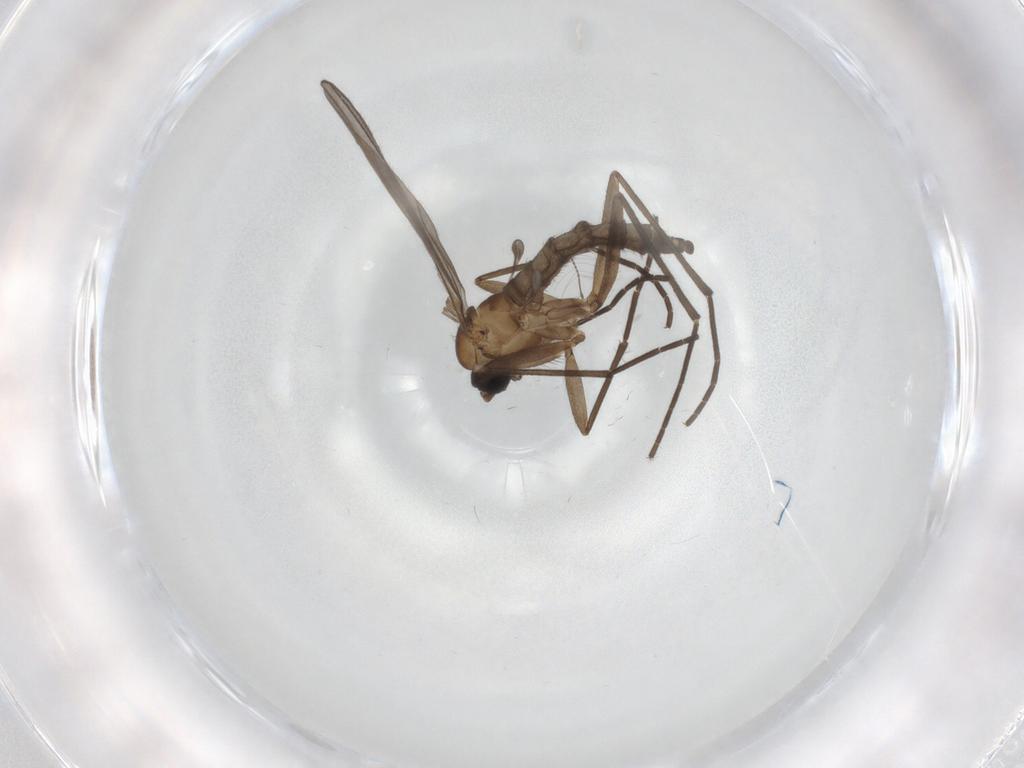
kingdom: Animalia
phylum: Arthropoda
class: Insecta
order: Diptera
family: Sciaridae
